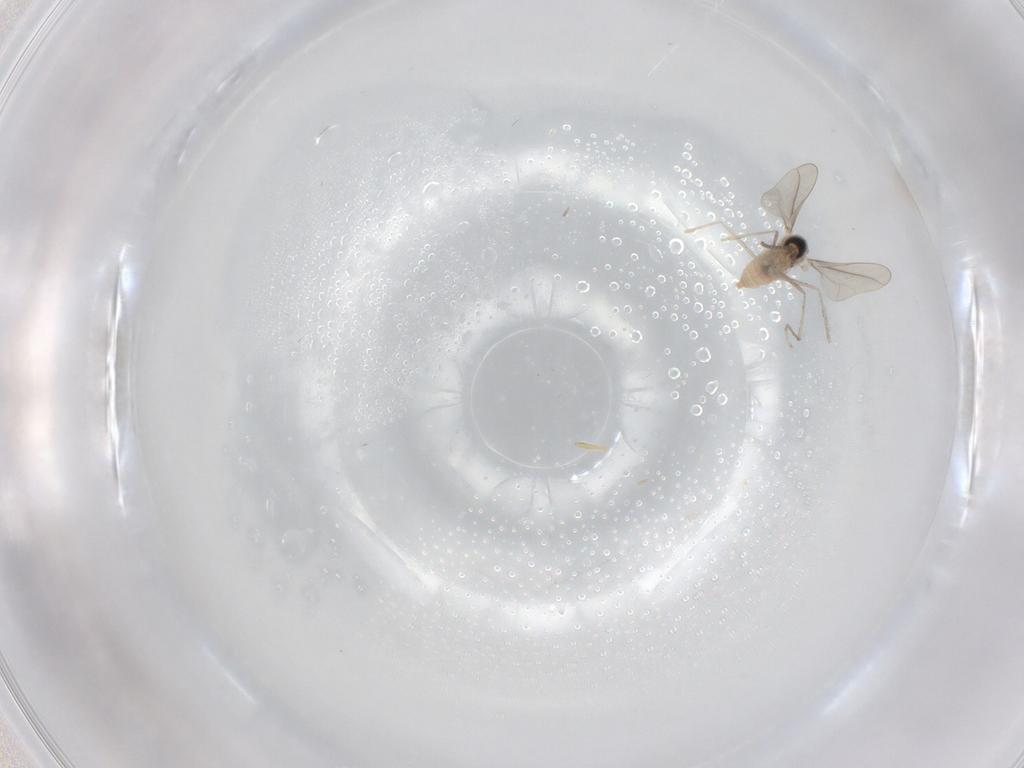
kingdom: Animalia
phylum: Arthropoda
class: Insecta
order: Diptera
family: Cecidomyiidae
